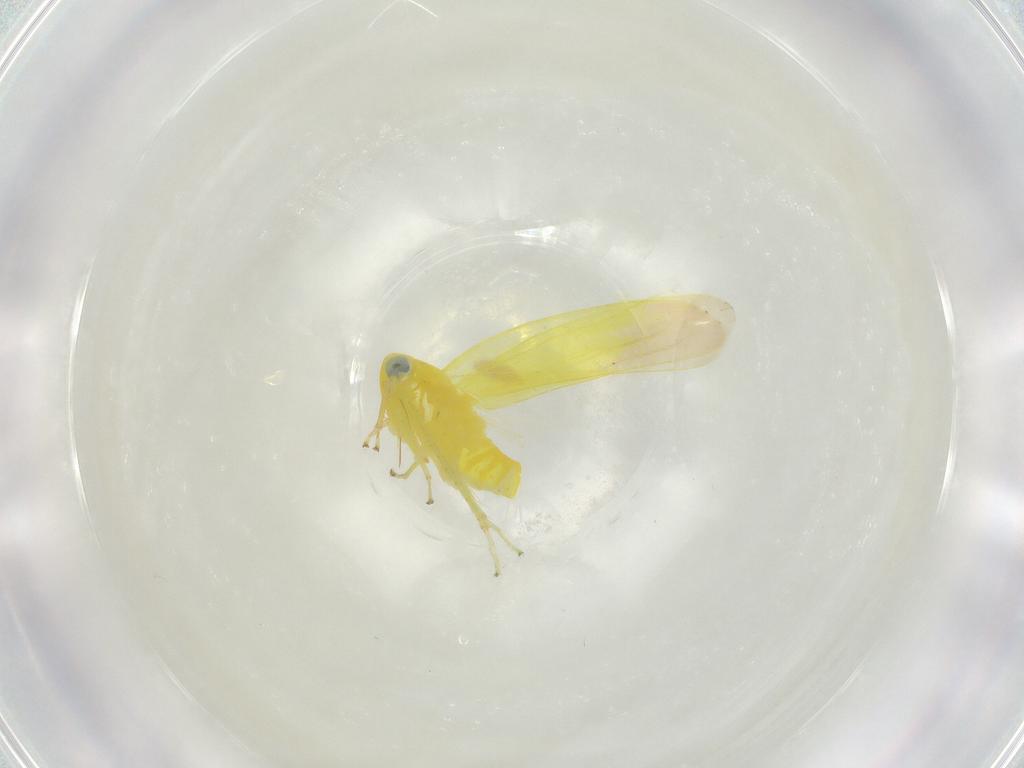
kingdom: Animalia
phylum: Arthropoda
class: Insecta
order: Hemiptera
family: Cicadellidae
